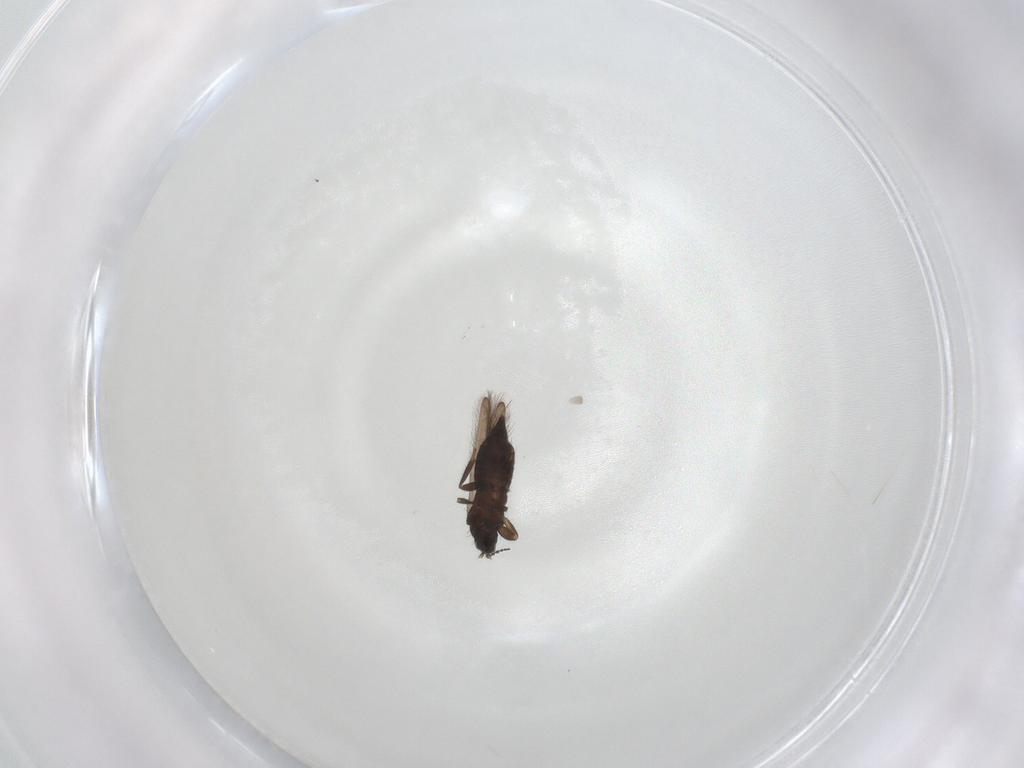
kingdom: Animalia
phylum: Arthropoda
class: Insecta
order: Thysanoptera
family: Melanthripidae
